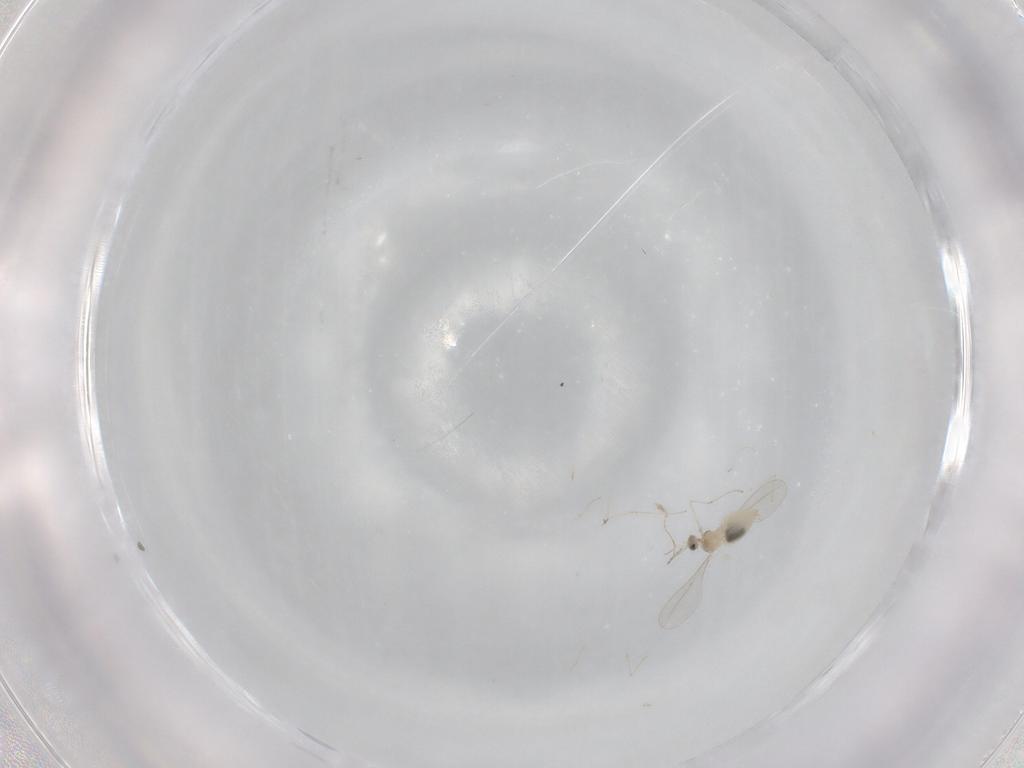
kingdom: Animalia
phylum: Arthropoda
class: Insecta
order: Diptera
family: Cecidomyiidae
